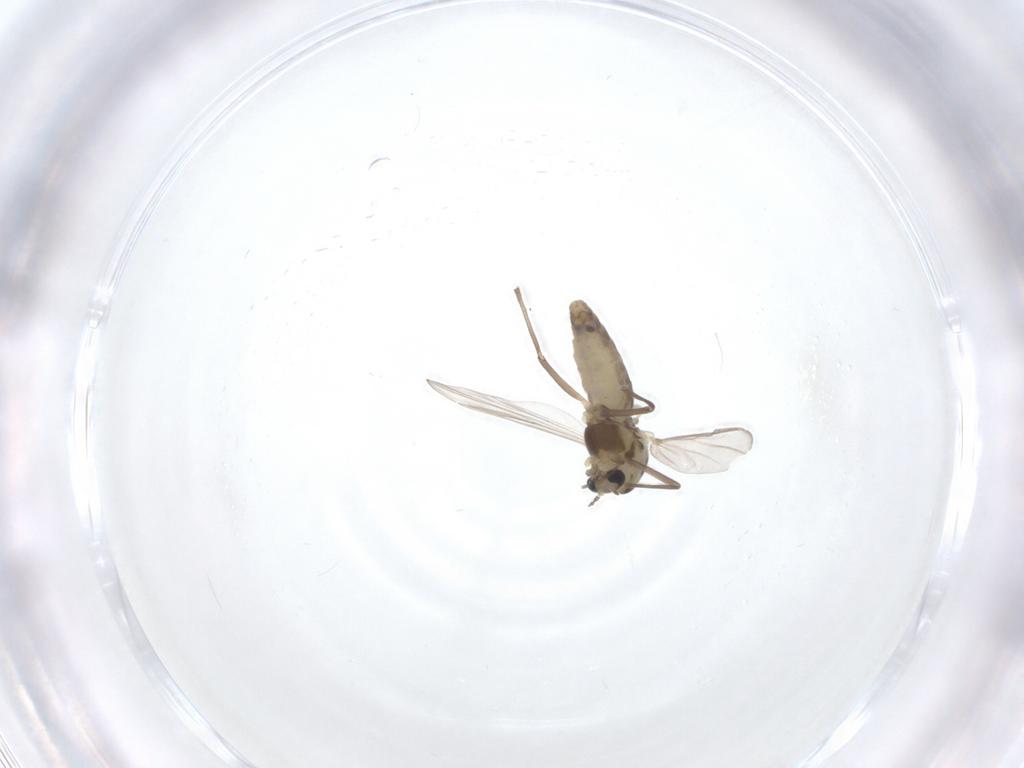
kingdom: Animalia
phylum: Arthropoda
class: Insecta
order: Diptera
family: Chironomidae
